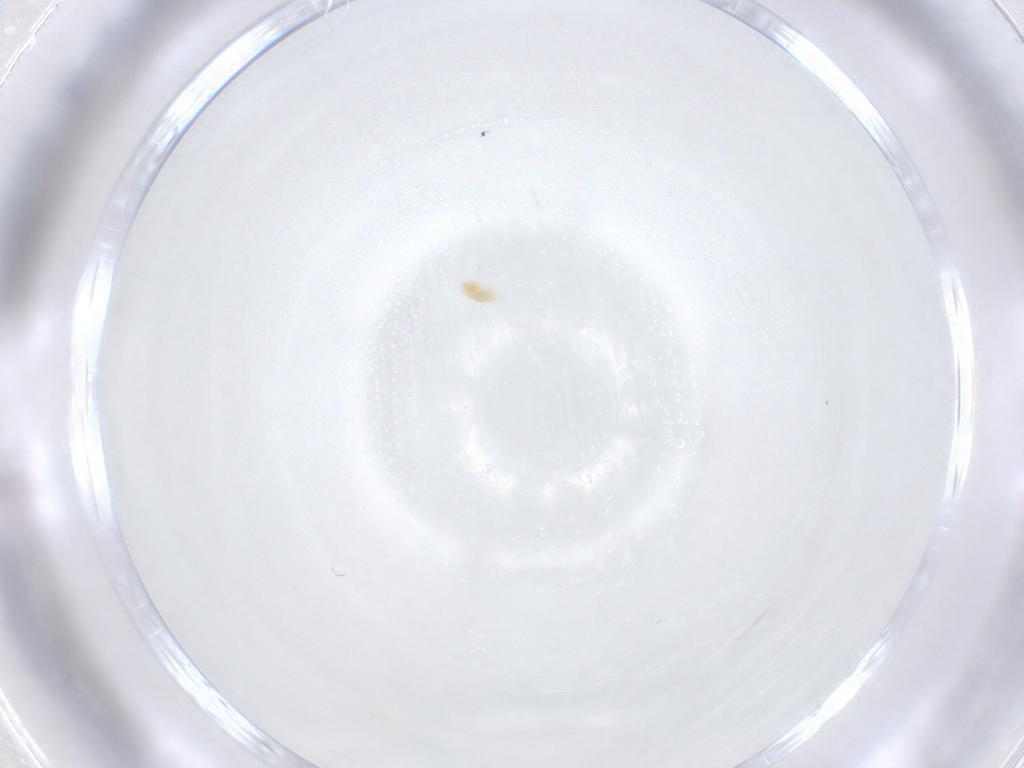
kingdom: Animalia
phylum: Arthropoda
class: Arachnida
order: Trombidiformes
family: Eupodidae
